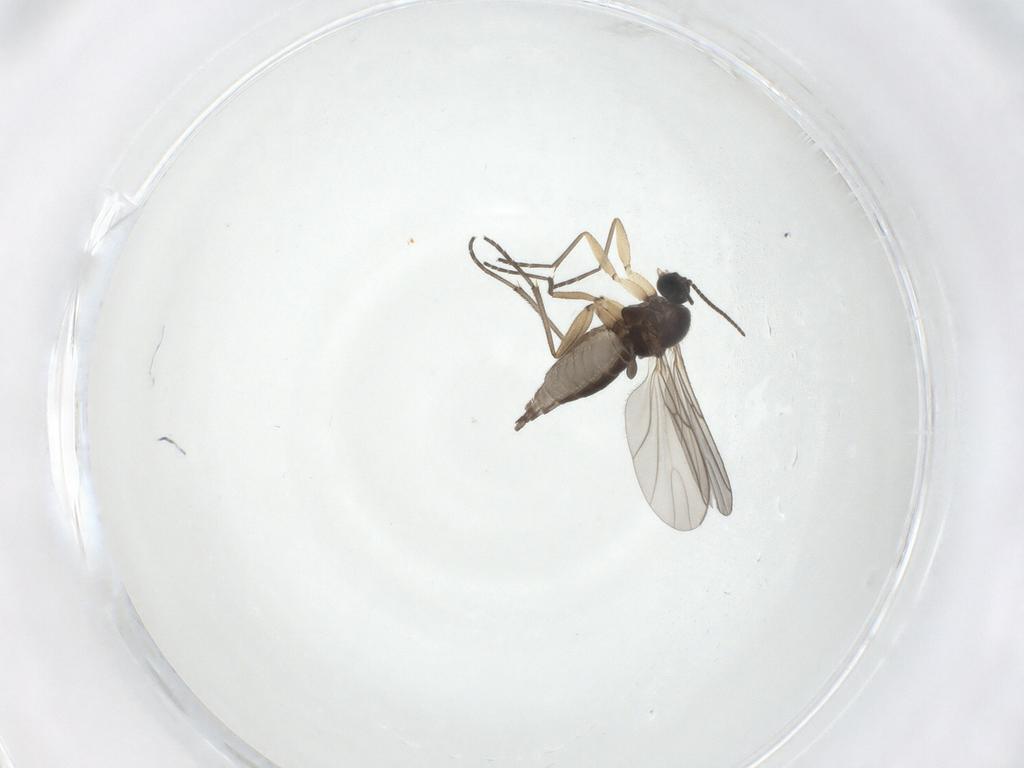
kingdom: Animalia
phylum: Arthropoda
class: Insecta
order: Diptera
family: Sciaridae
